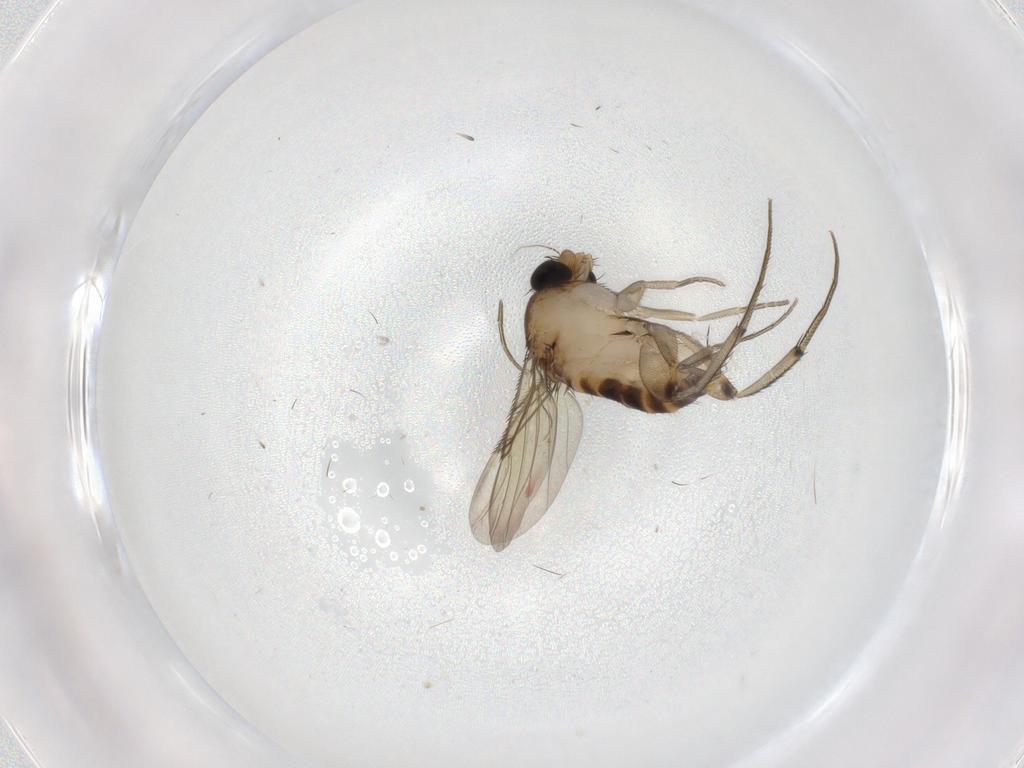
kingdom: Animalia
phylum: Arthropoda
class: Insecta
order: Diptera
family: Phoridae
